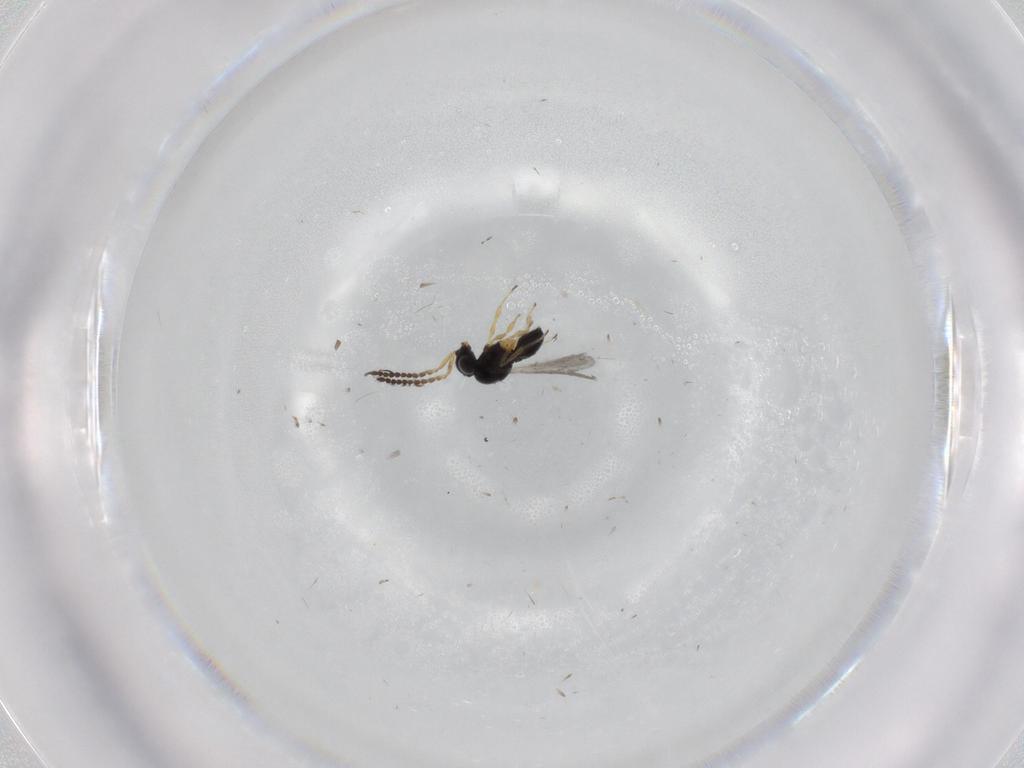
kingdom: Animalia
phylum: Arthropoda
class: Insecta
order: Hymenoptera
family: Scelionidae
